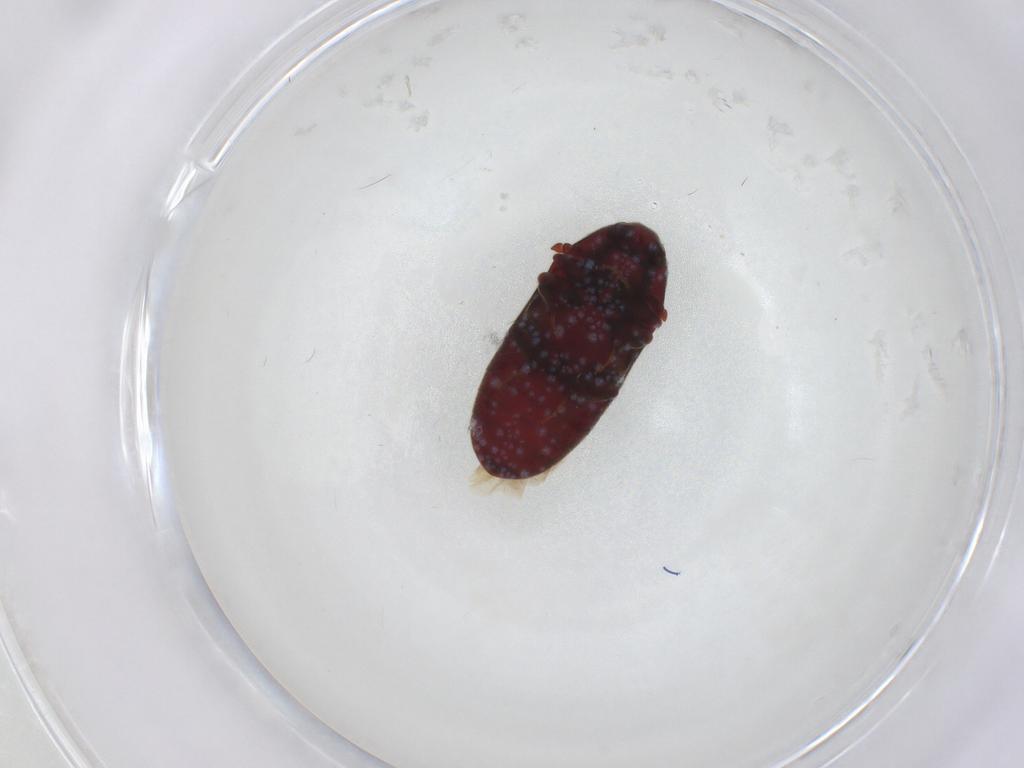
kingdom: Animalia
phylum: Arthropoda
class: Insecta
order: Coleoptera
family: Throscidae
